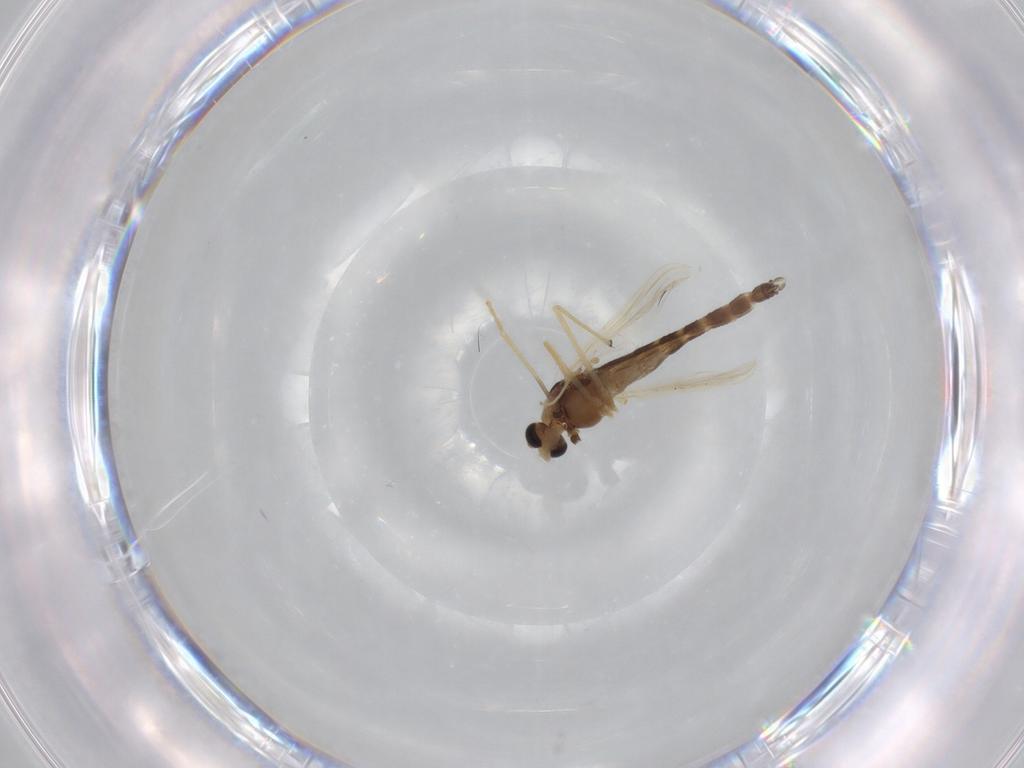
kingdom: Animalia
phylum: Arthropoda
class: Insecta
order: Diptera
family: Chironomidae
